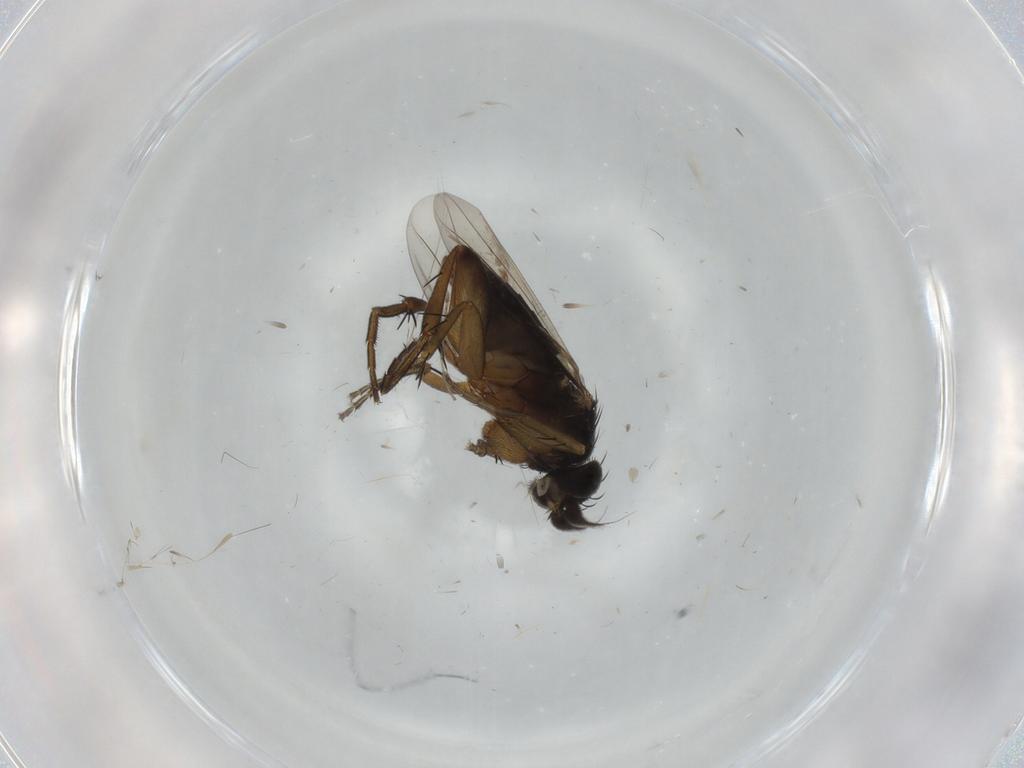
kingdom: Animalia
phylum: Arthropoda
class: Insecta
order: Diptera
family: Phoridae
